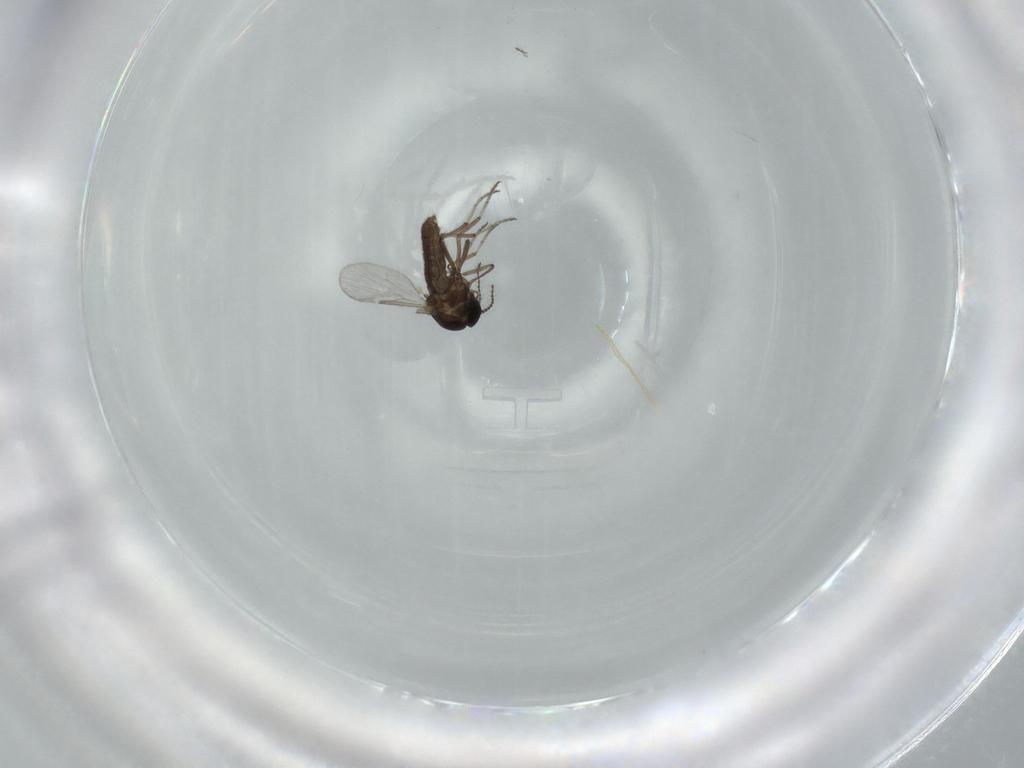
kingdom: Animalia
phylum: Arthropoda
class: Insecta
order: Diptera
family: Ceratopogonidae
